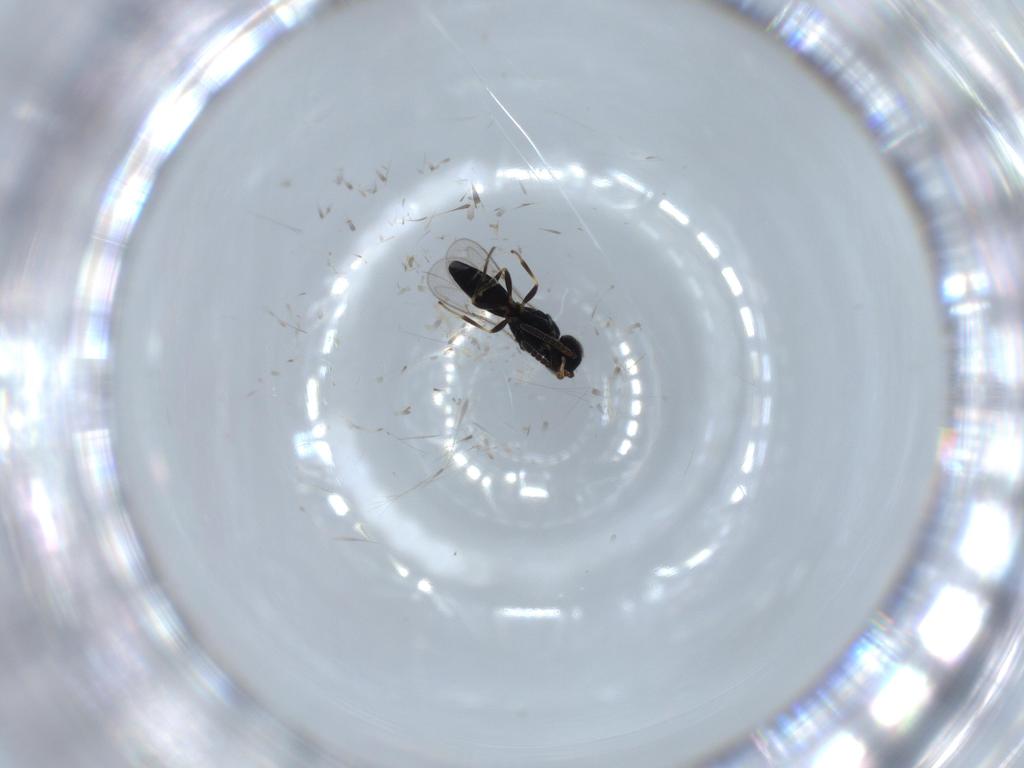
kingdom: Animalia
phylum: Arthropoda
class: Insecta
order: Hymenoptera
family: Scelionidae
